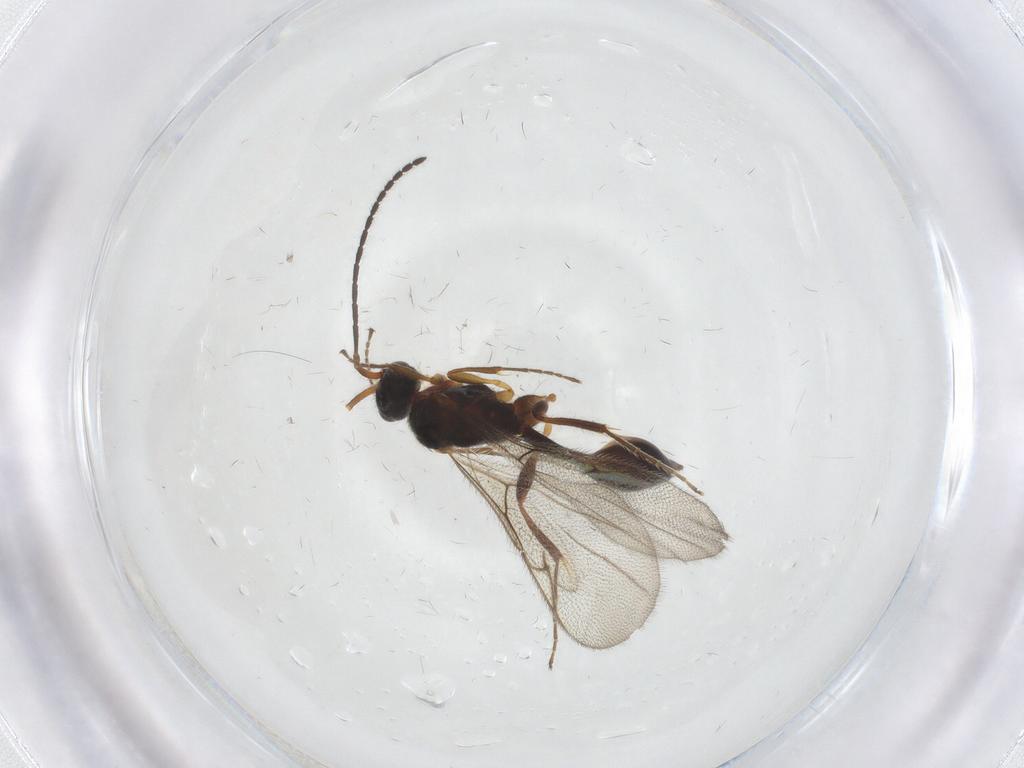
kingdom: Animalia
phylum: Arthropoda
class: Insecta
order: Hymenoptera
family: Diapriidae
